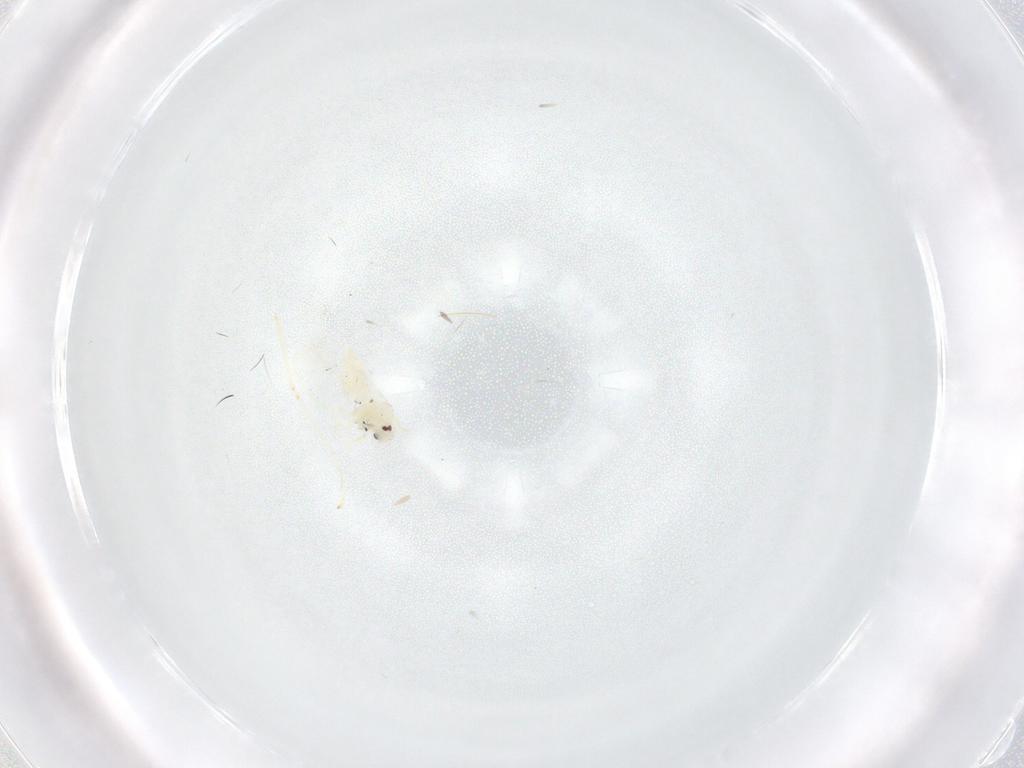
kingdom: Animalia
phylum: Arthropoda
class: Insecta
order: Hemiptera
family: Aleyrodidae
